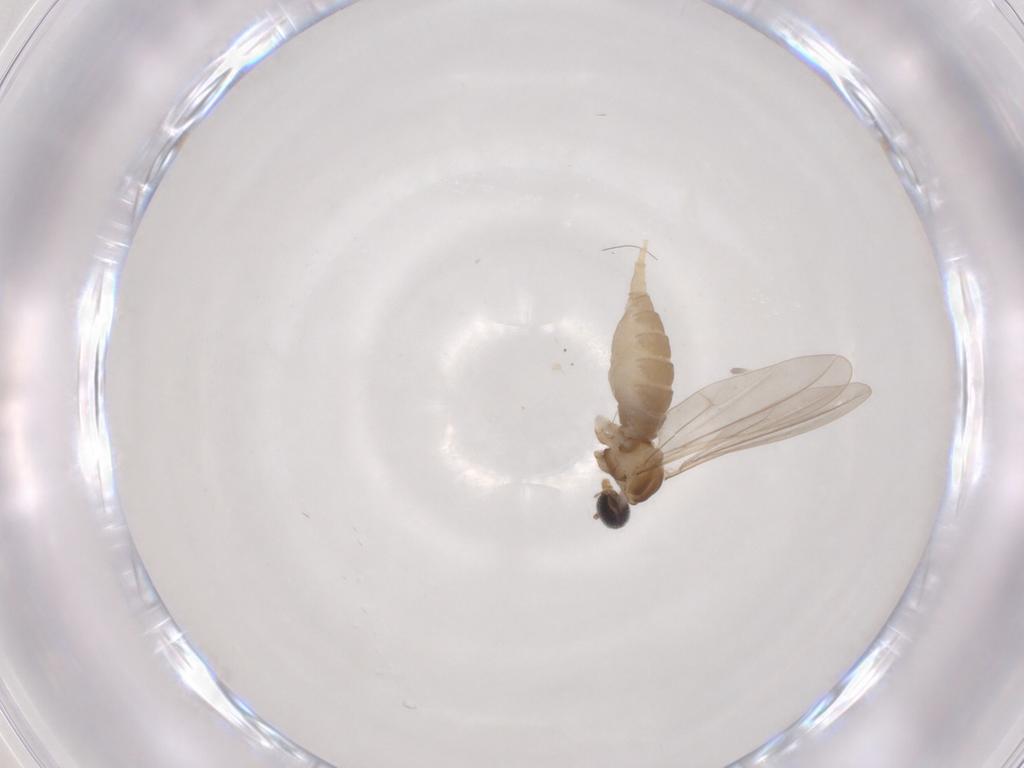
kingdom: Animalia
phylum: Arthropoda
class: Insecta
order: Diptera
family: Cecidomyiidae
